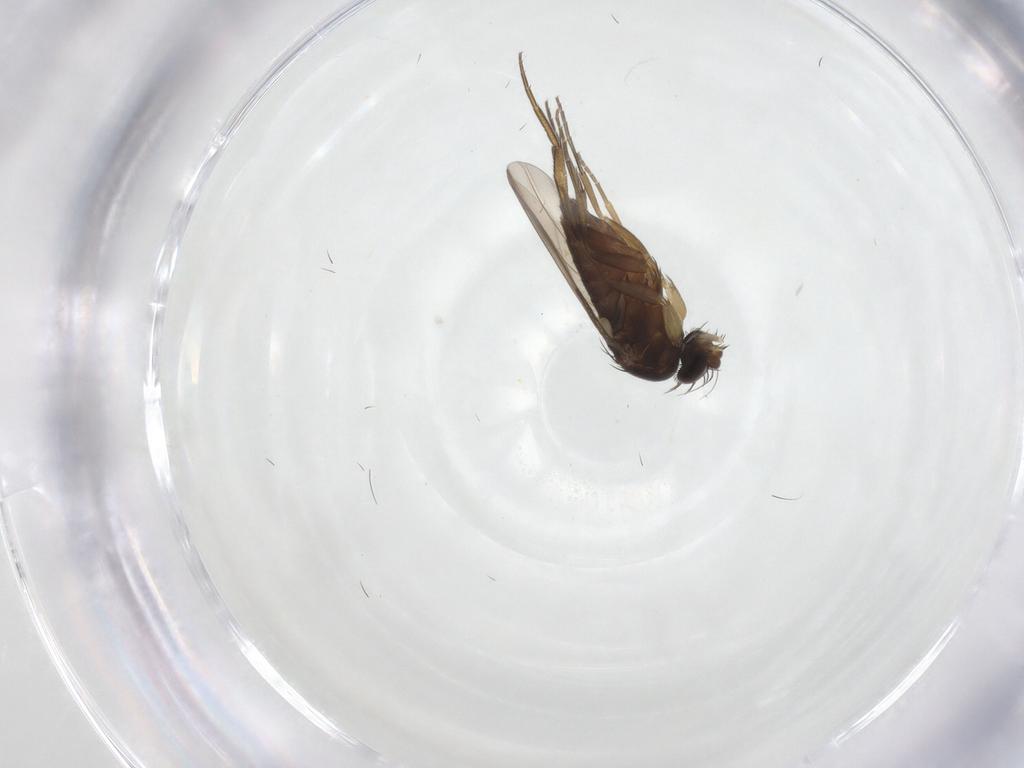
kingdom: Animalia
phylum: Arthropoda
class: Insecta
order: Diptera
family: Phoridae
